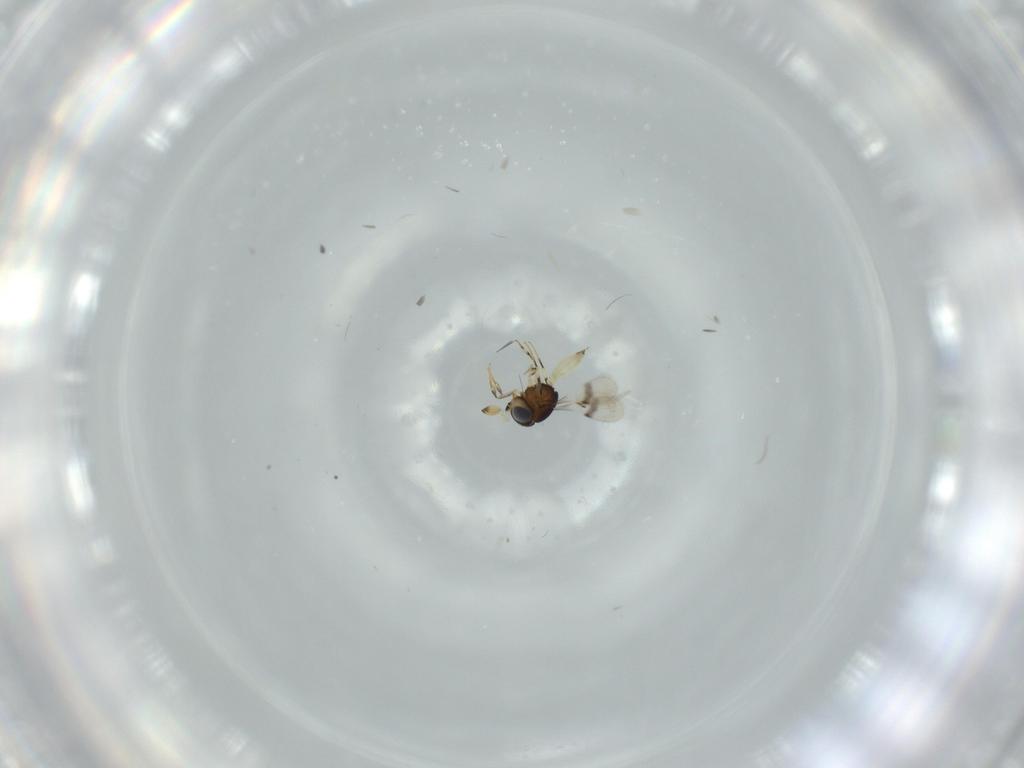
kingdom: Animalia
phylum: Arthropoda
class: Insecta
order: Hymenoptera
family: Scelionidae
